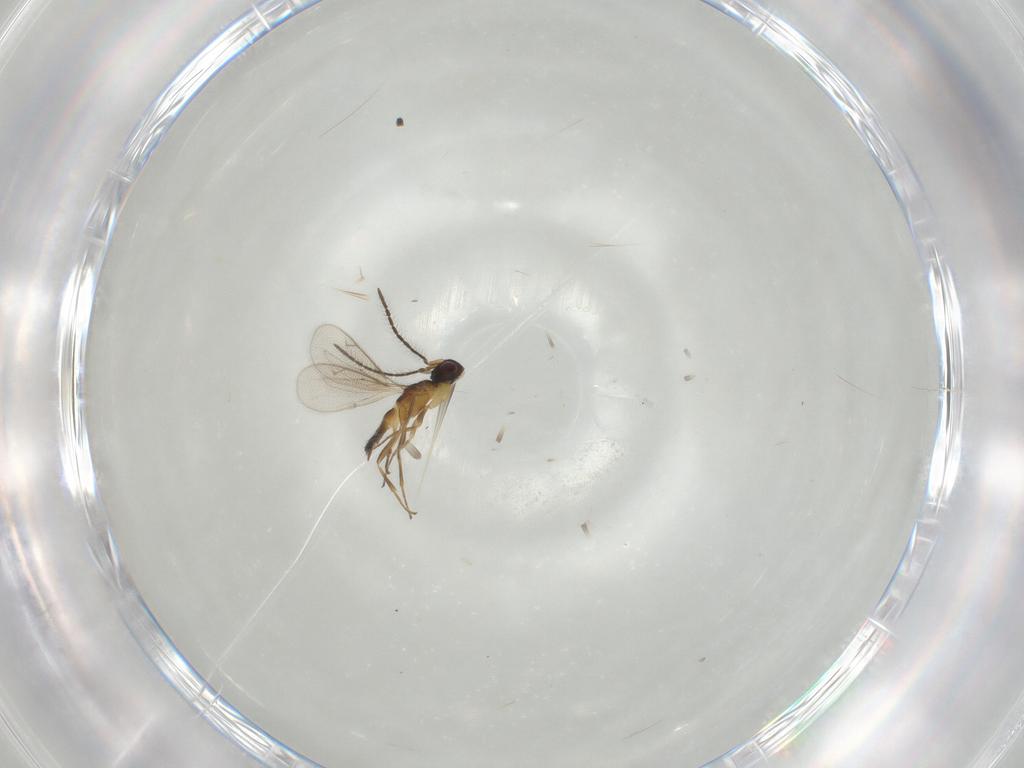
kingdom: Animalia
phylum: Arthropoda
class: Insecta
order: Hymenoptera
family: Eupelmidae
